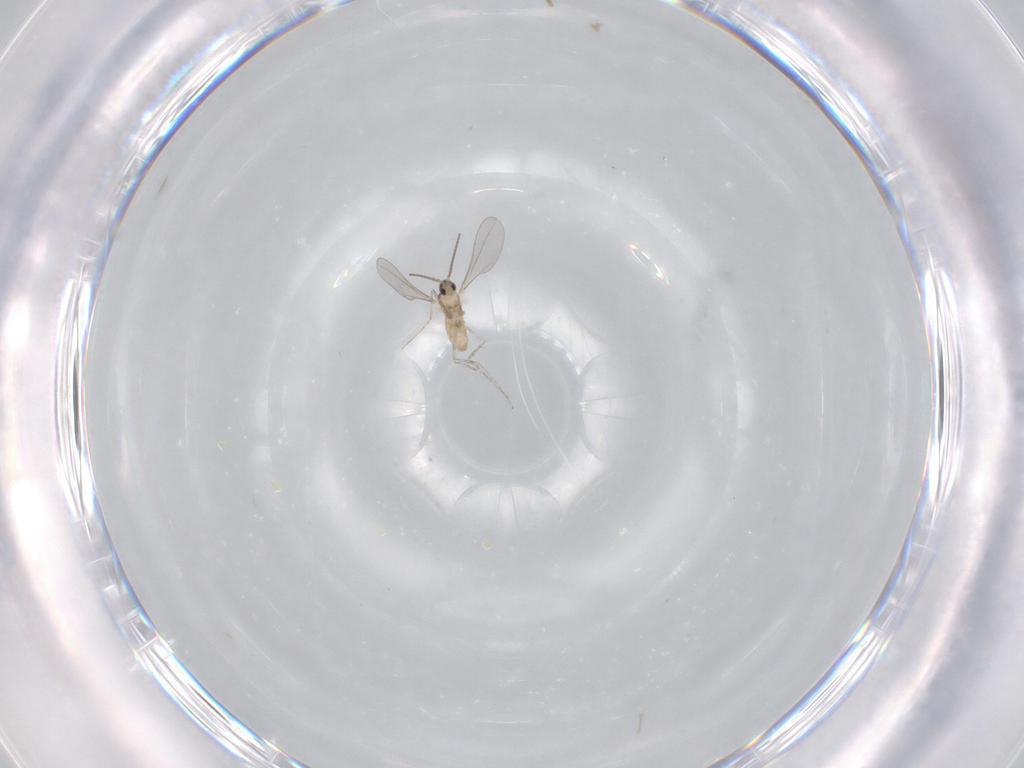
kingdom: Animalia
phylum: Arthropoda
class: Insecta
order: Diptera
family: Cecidomyiidae
